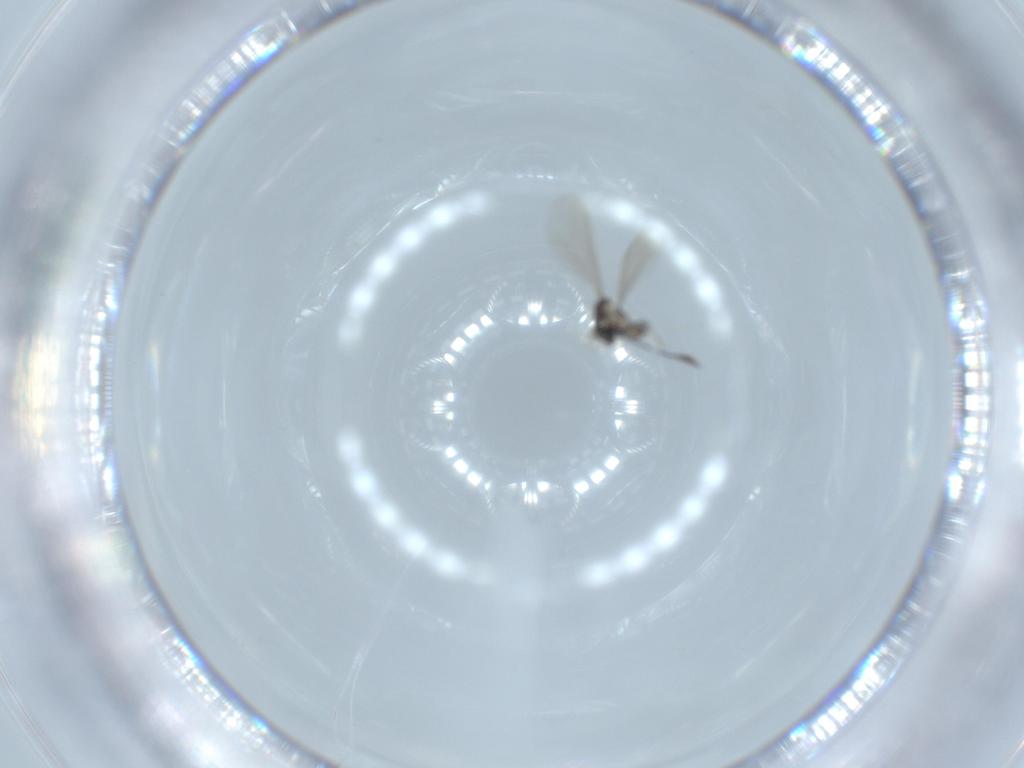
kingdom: Animalia
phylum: Arthropoda
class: Insecta
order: Diptera
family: Cecidomyiidae
